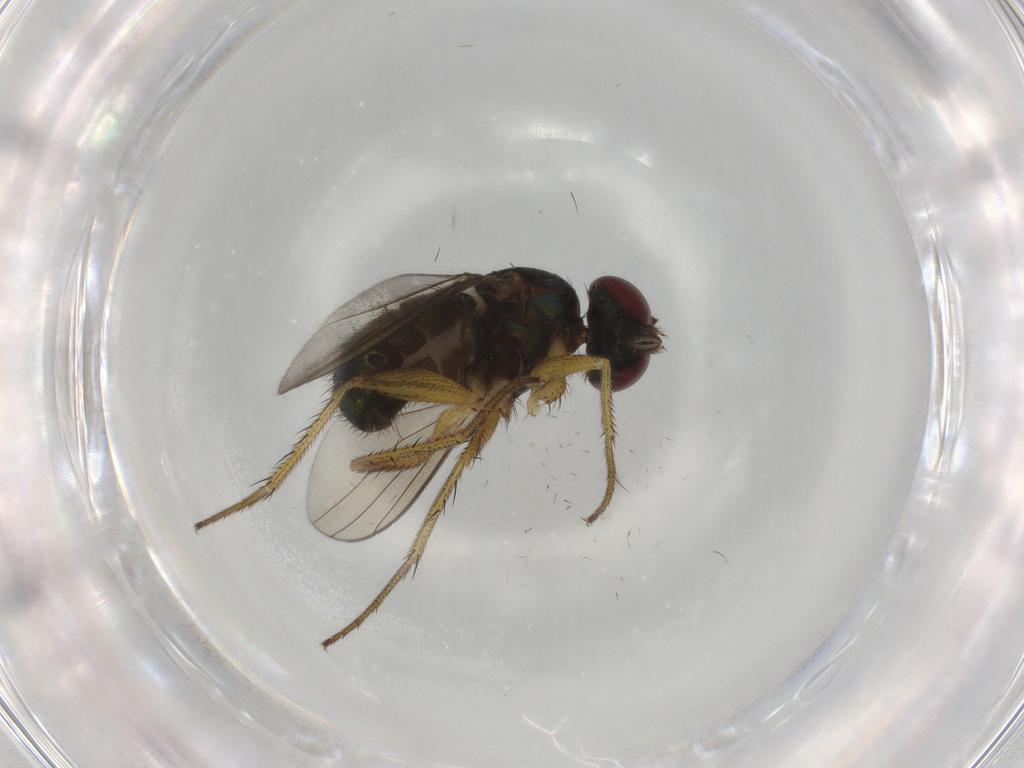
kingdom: Animalia
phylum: Arthropoda
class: Insecta
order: Diptera
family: Dolichopodidae
